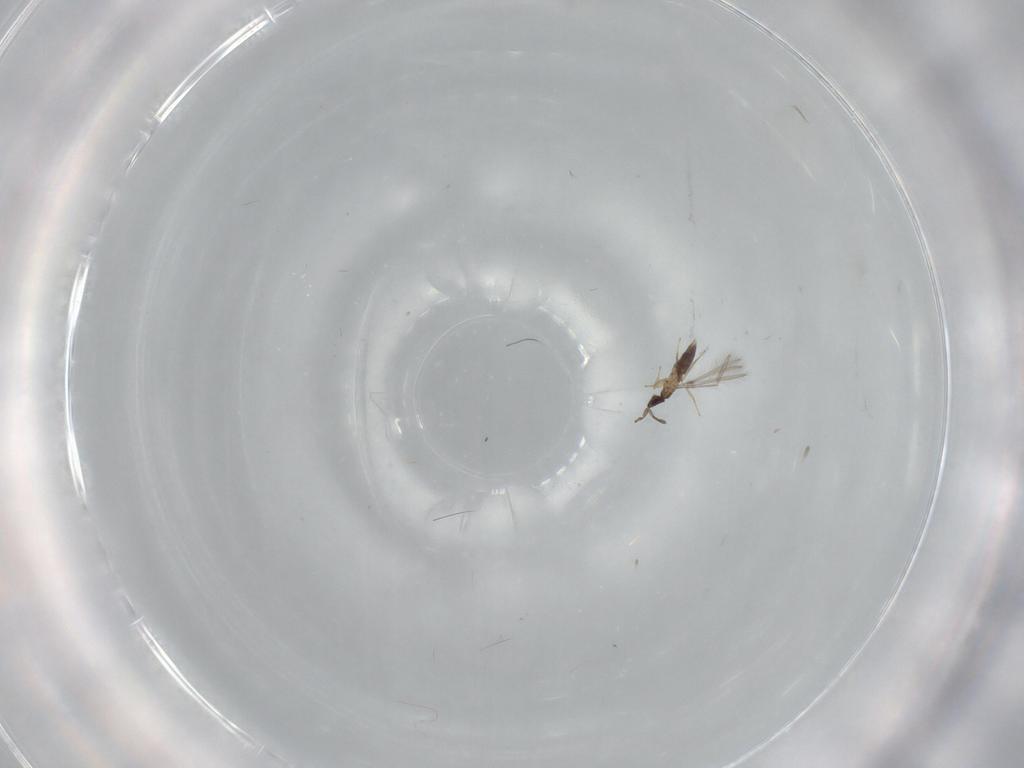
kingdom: Animalia
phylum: Arthropoda
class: Insecta
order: Hymenoptera
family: Mymaridae
